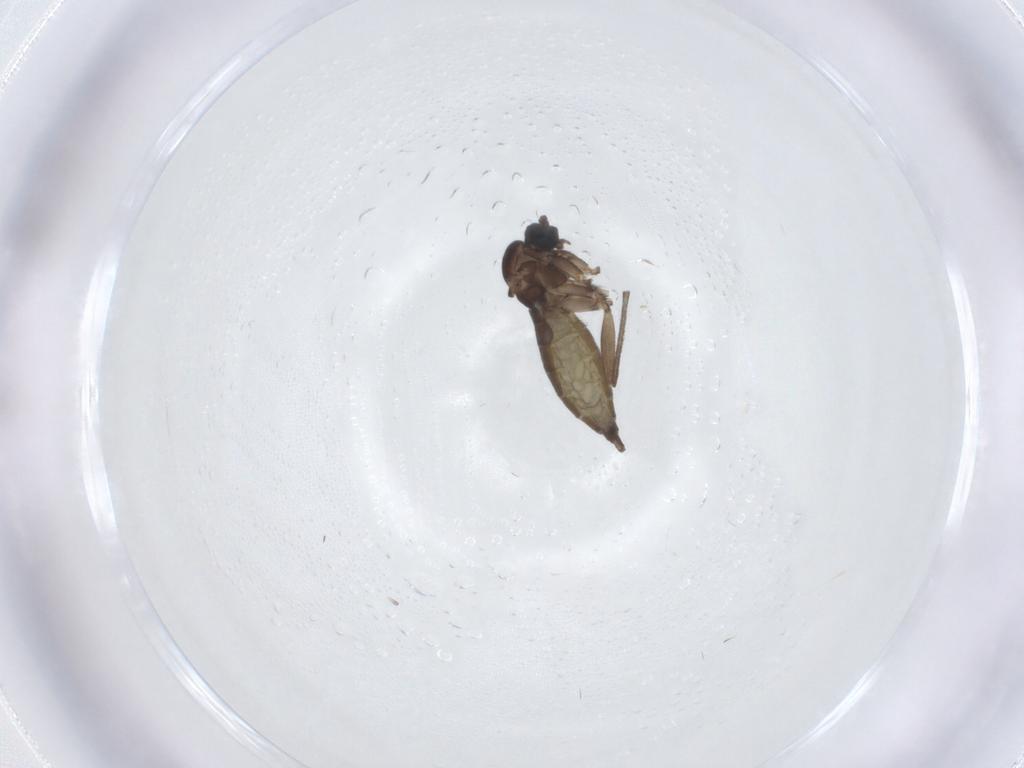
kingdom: Animalia
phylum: Arthropoda
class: Insecta
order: Diptera
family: Sciaridae
